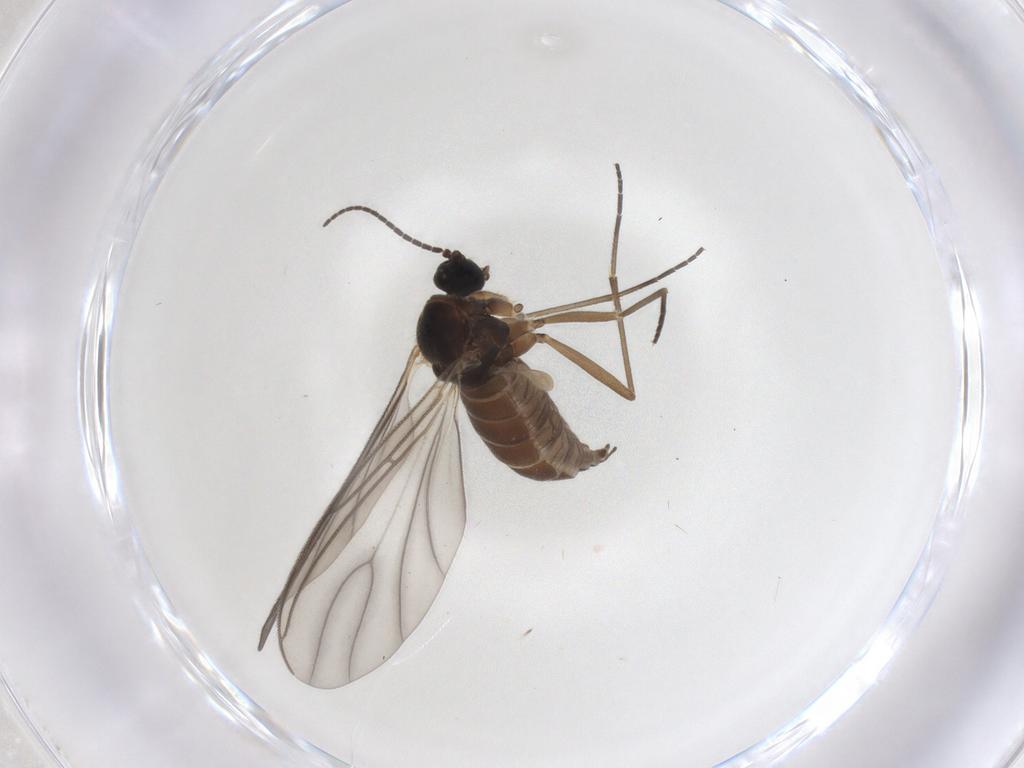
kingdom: Animalia
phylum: Arthropoda
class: Insecta
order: Diptera
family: Sciaridae
